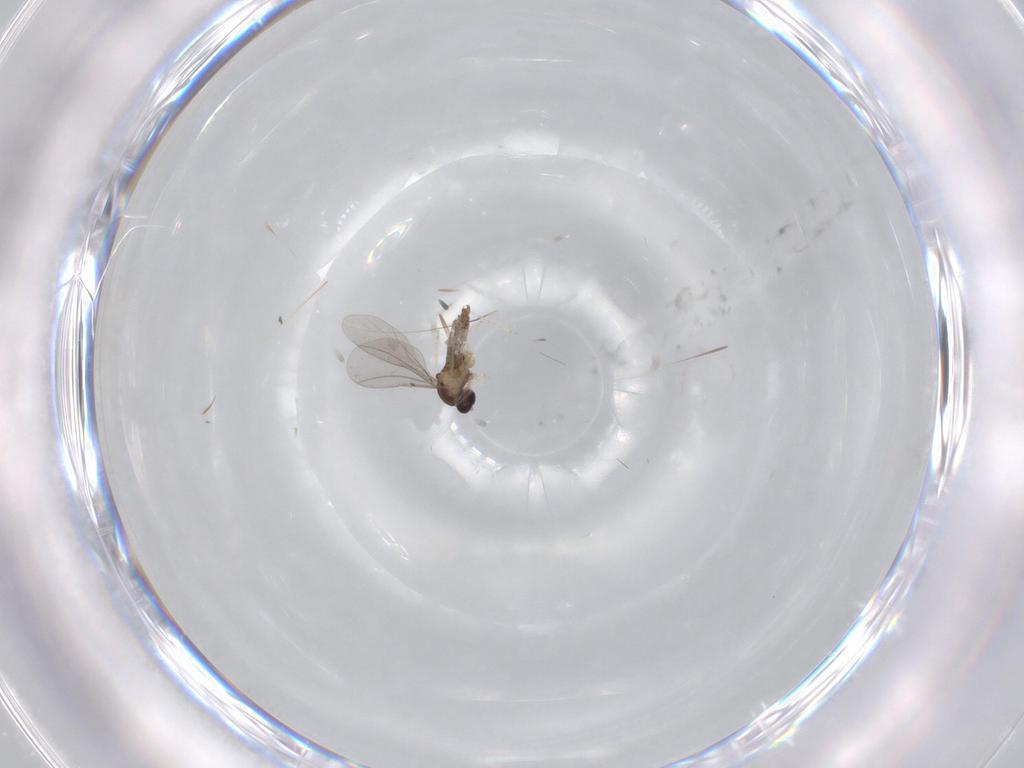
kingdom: Animalia
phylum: Arthropoda
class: Insecta
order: Diptera
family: Cecidomyiidae
